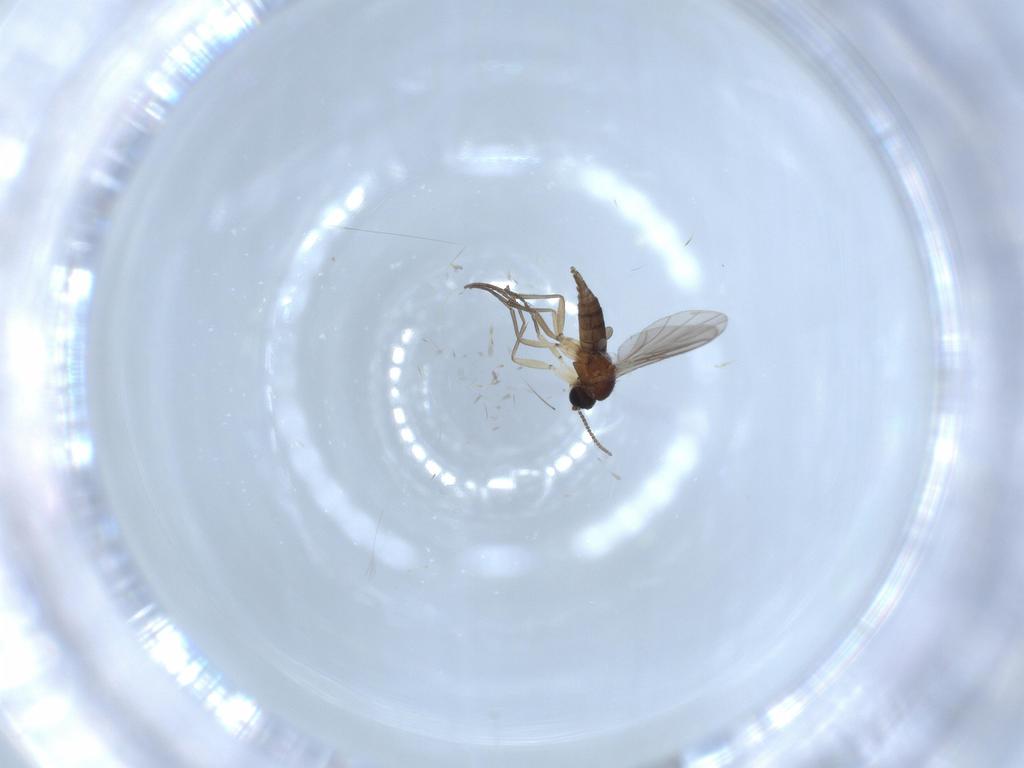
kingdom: Animalia
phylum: Arthropoda
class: Insecta
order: Diptera
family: Sciaridae
